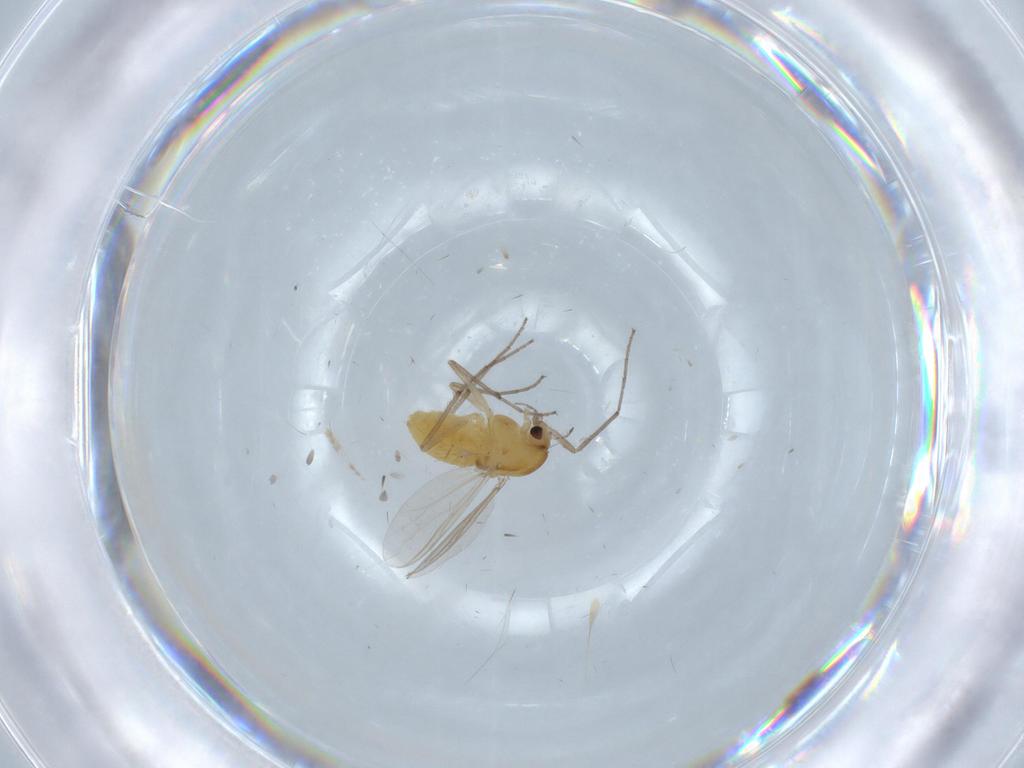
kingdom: Animalia
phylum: Arthropoda
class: Insecta
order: Diptera
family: Chironomidae
